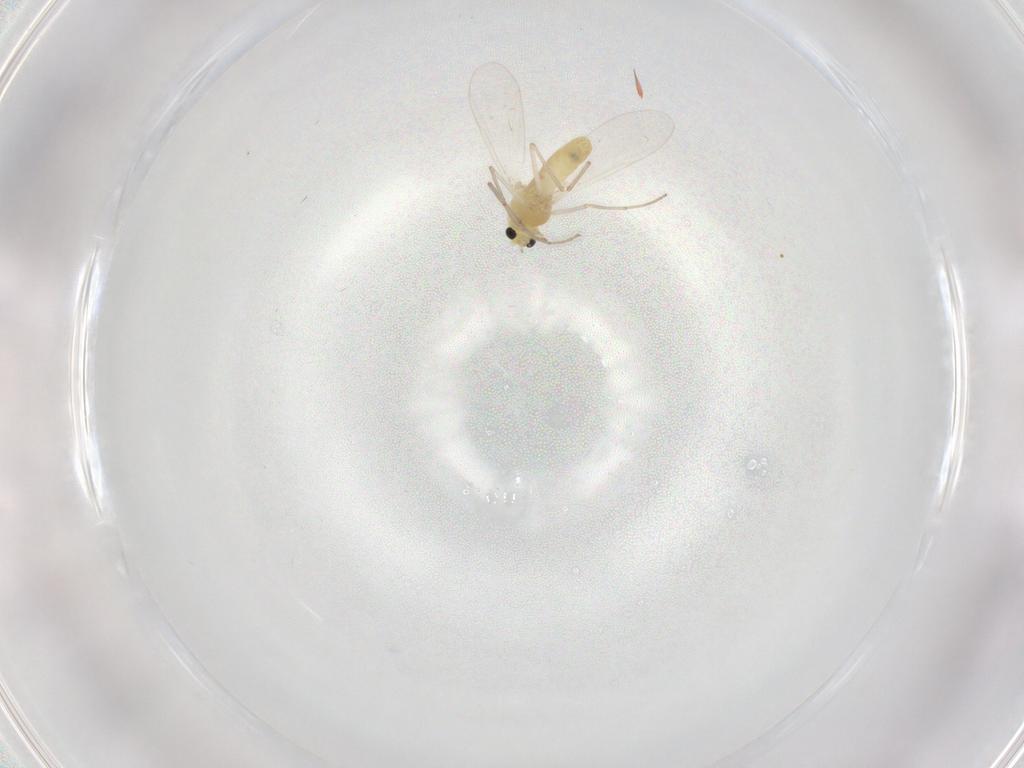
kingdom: Animalia
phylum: Arthropoda
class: Insecta
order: Diptera
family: Chironomidae
